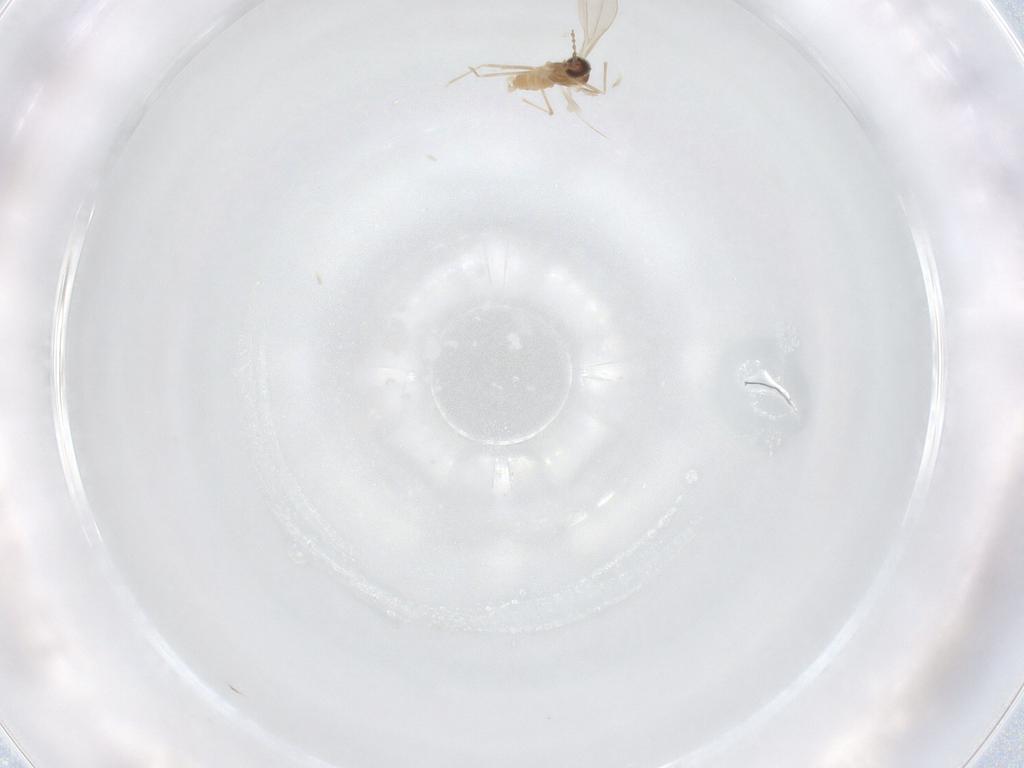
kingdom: Animalia
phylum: Arthropoda
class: Insecta
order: Diptera
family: Cecidomyiidae
